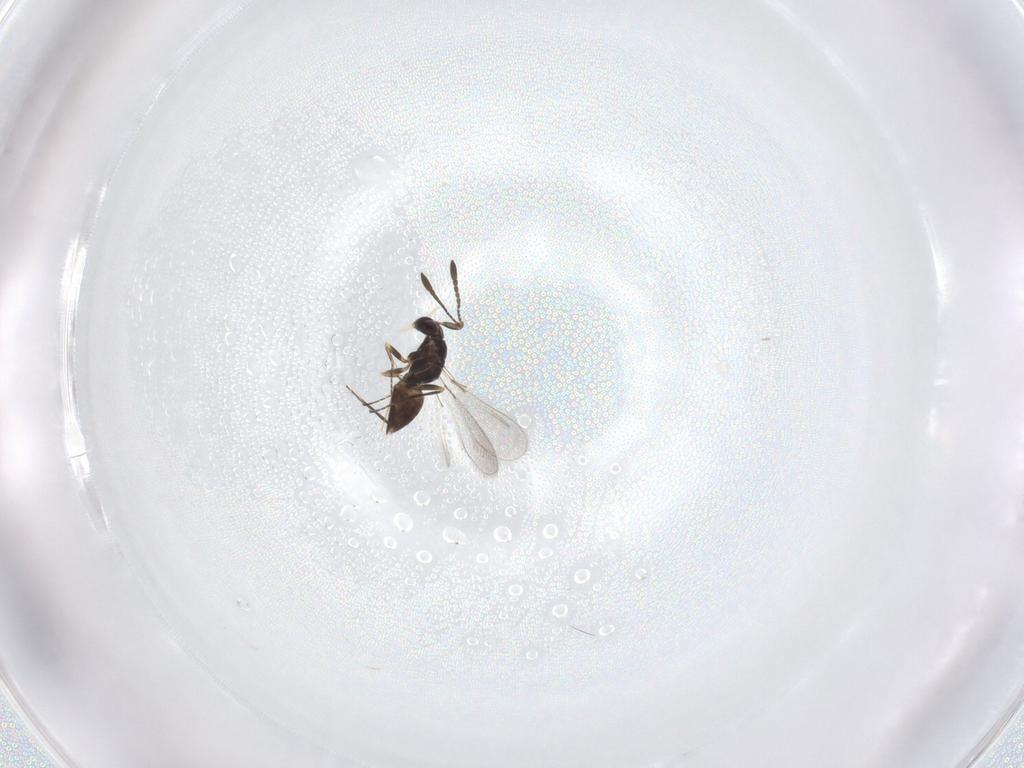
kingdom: Animalia
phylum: Arthropoda
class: Insecta
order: Hymenoptera
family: Mymaridae
